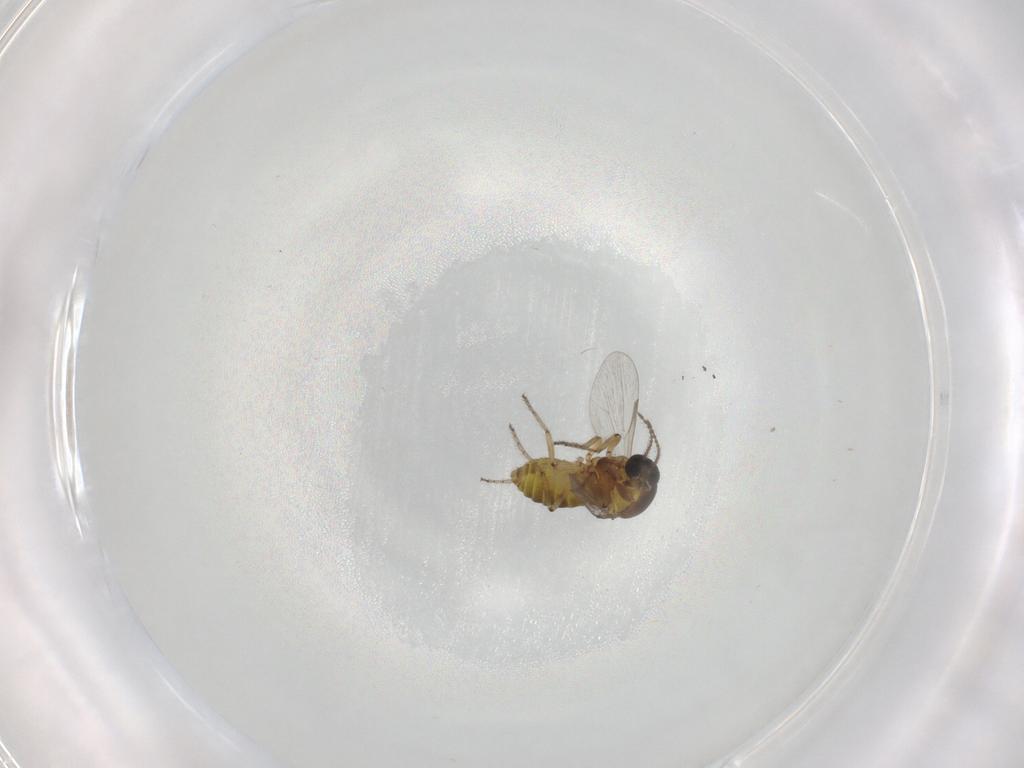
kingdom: Animalia
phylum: Arthropoda
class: Insecta
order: Diptera
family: Ceratopogonidae
